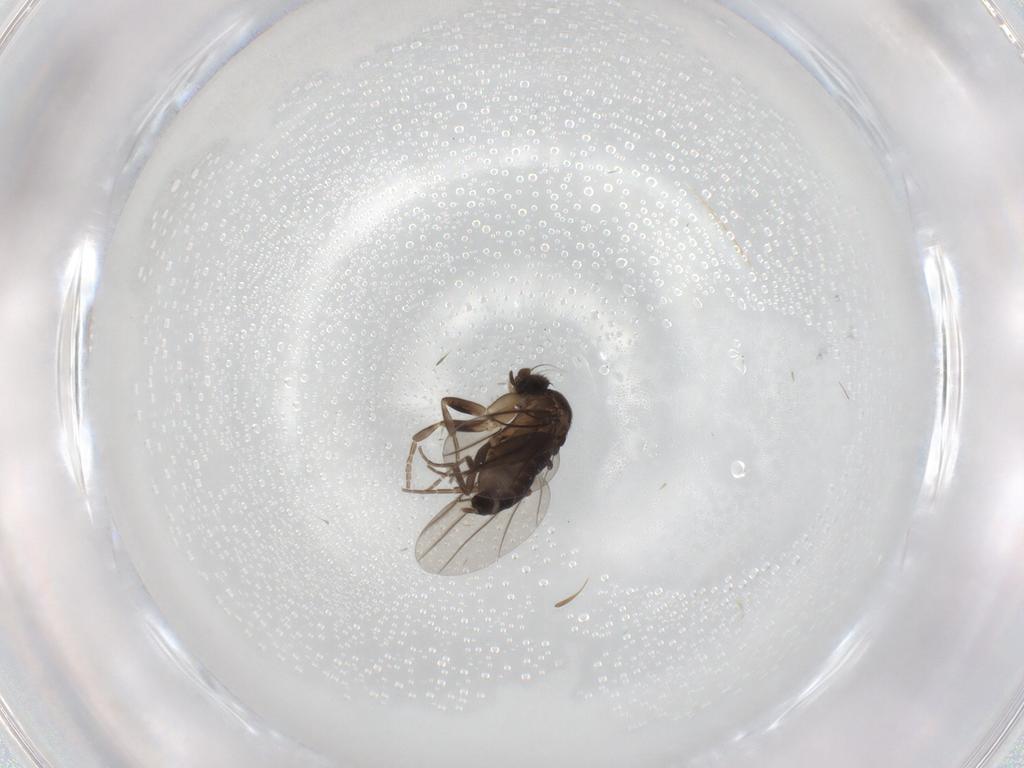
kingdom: Animalia
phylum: Arthropoda
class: Insecta
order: Diptera
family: Phoridae
